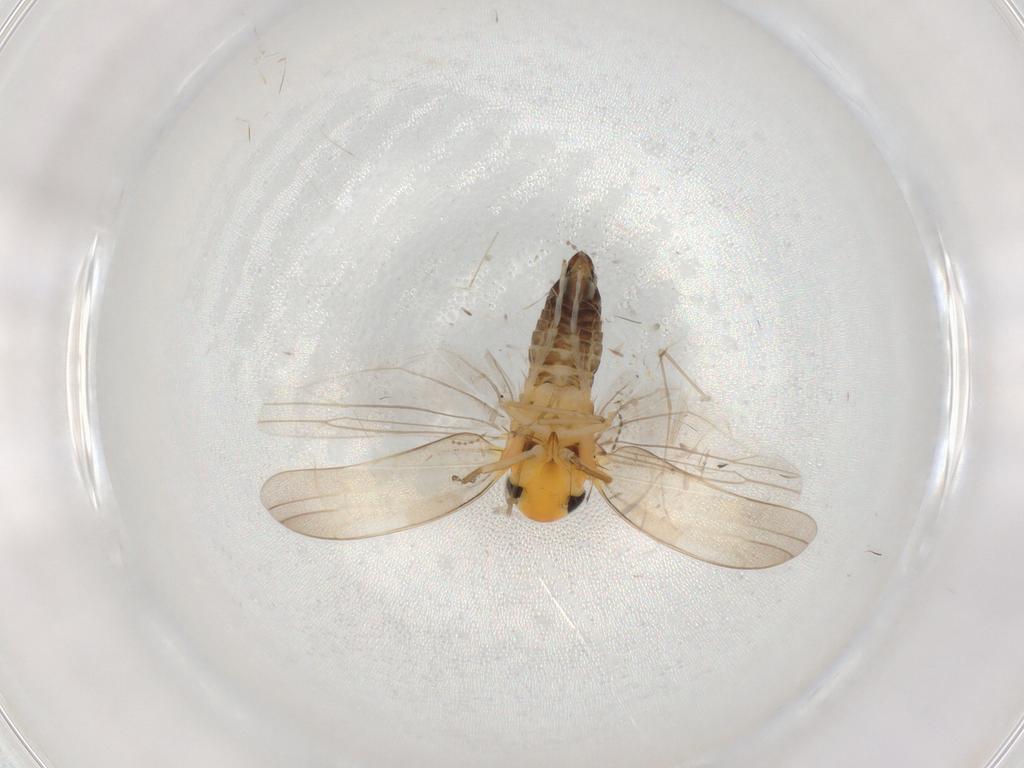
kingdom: Animalia
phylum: Arthropoda
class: Insecta
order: Hemiptera
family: Cicadellidae
